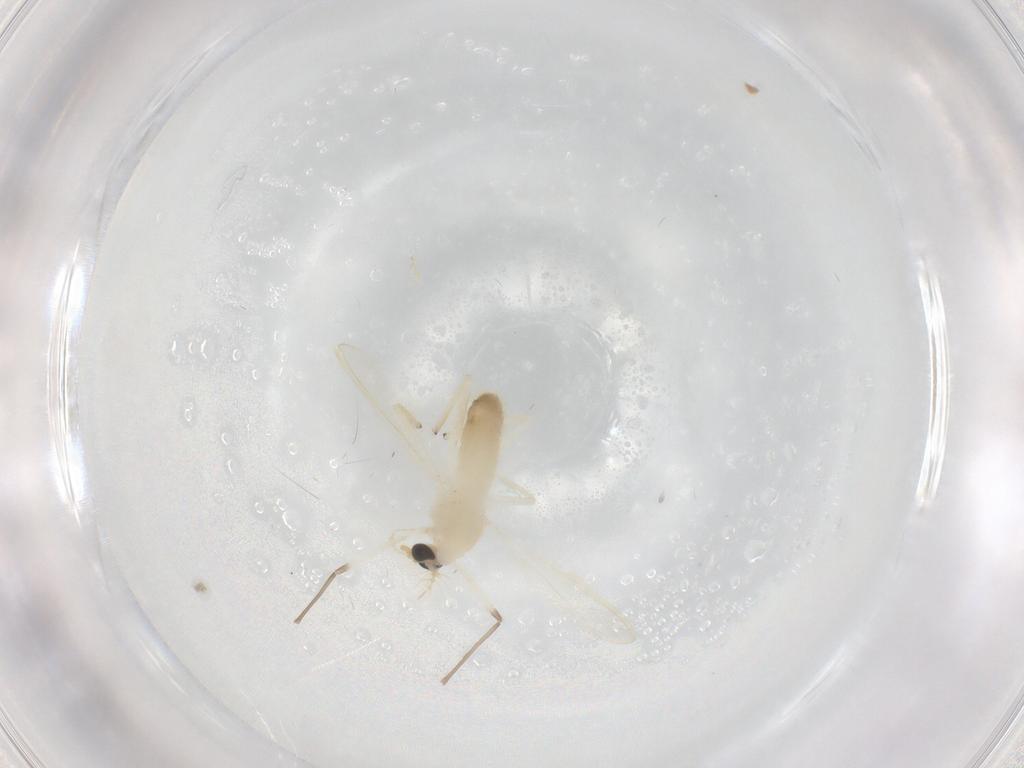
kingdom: Animalia
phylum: Arthropoda
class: Insecta
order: Diptera
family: Chironomidae
